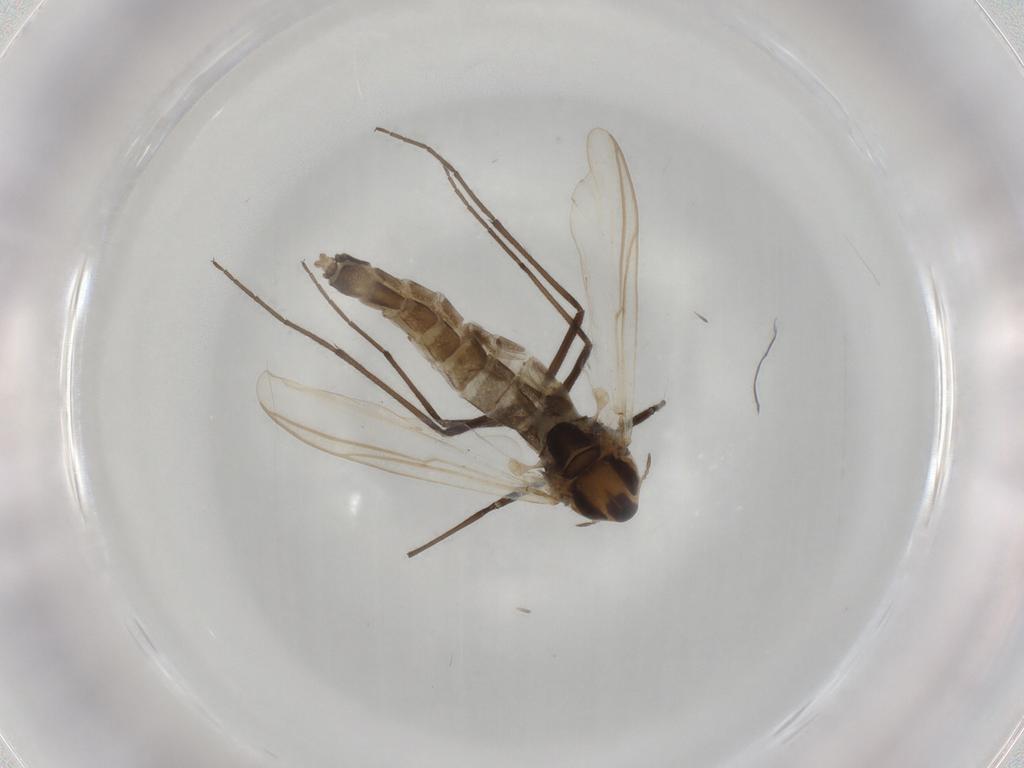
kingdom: Animalia
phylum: Arthropoda
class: Insecta
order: Diptera
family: Chironomidae
